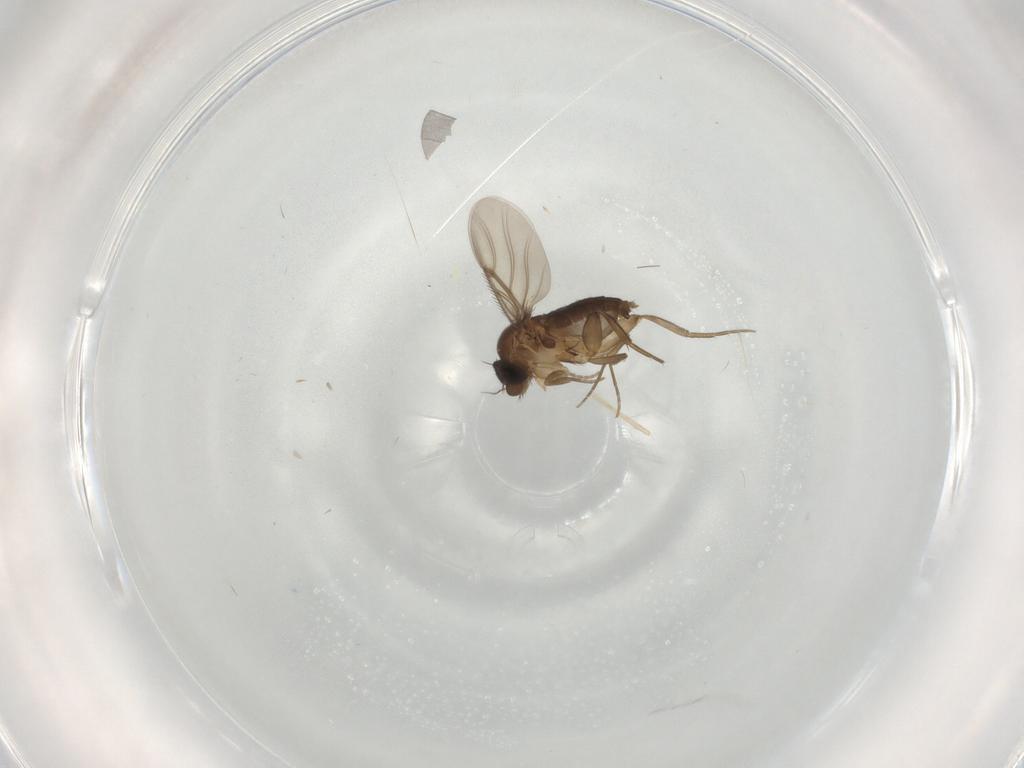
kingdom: Animalia
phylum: Arthropoda
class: Insecta
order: Diptera
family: Phoridae
